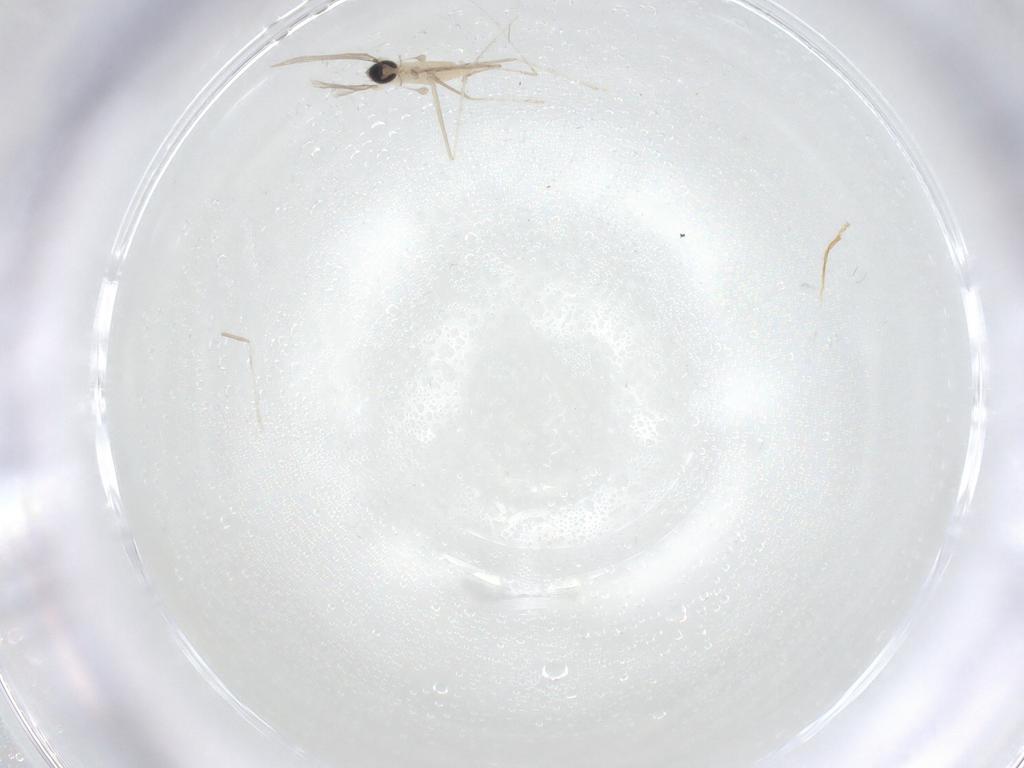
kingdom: Animalia
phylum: Arthropoda
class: Insecta
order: Diptera
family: Cecidomyiidae
